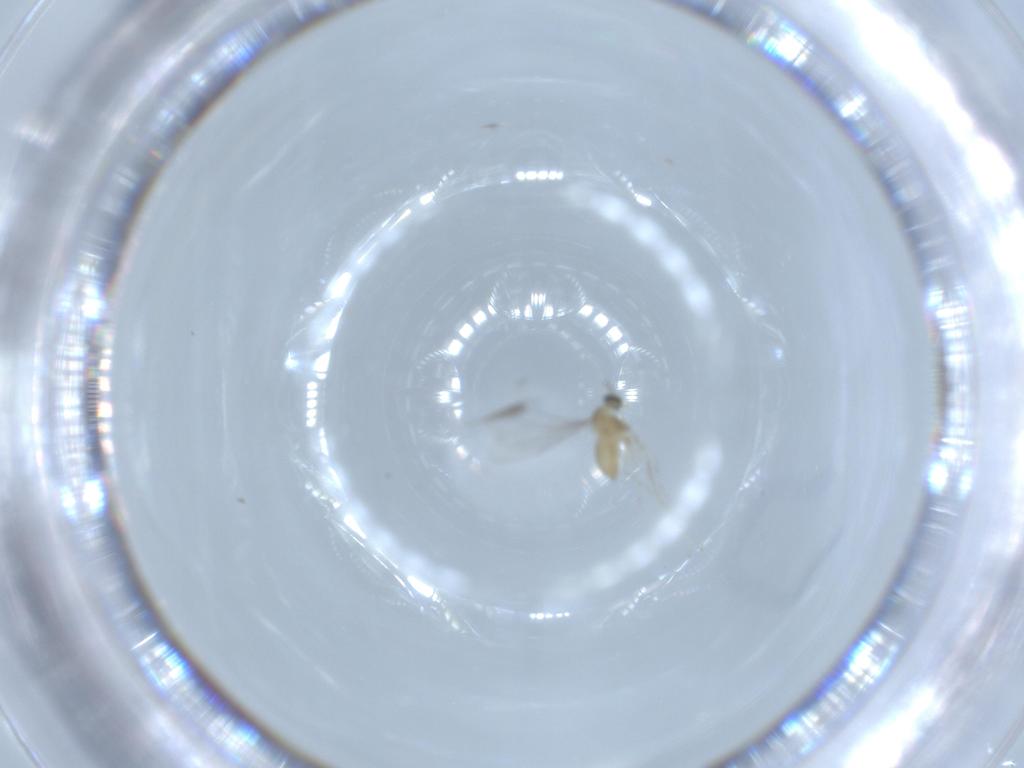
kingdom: Animalia
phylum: Arthropoda
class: Insecta
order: Diptera
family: Cecidomyiidae
